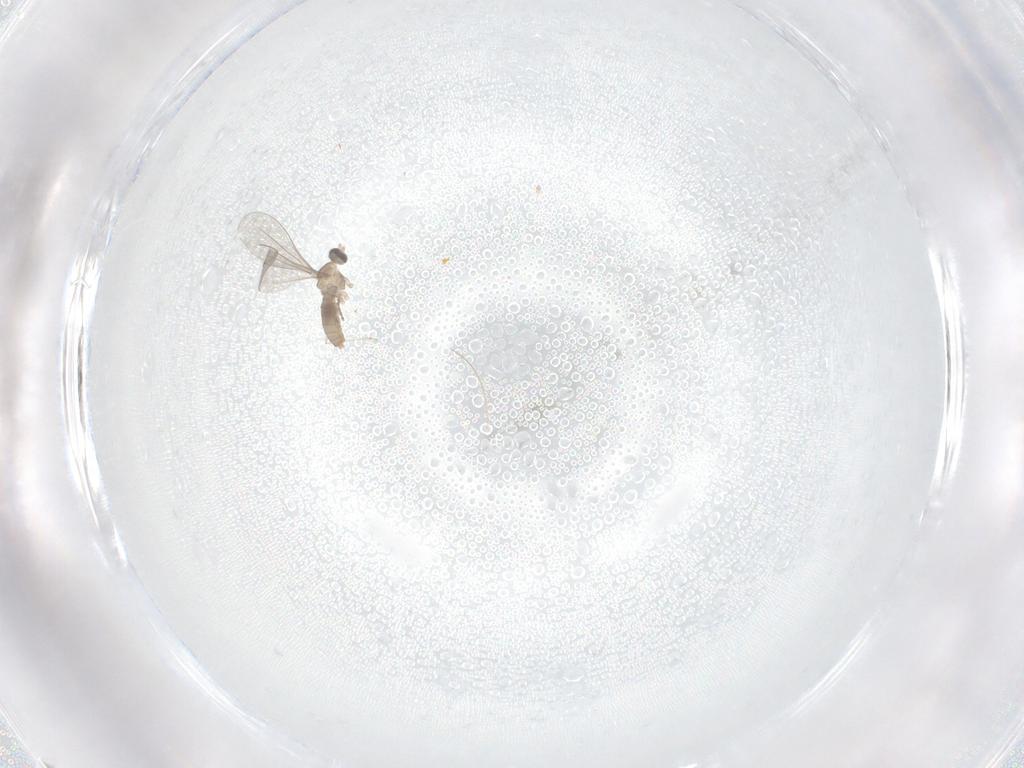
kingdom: Animalia
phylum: Arthropoda
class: Insecta
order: Diptera
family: Cecidomyiidae
